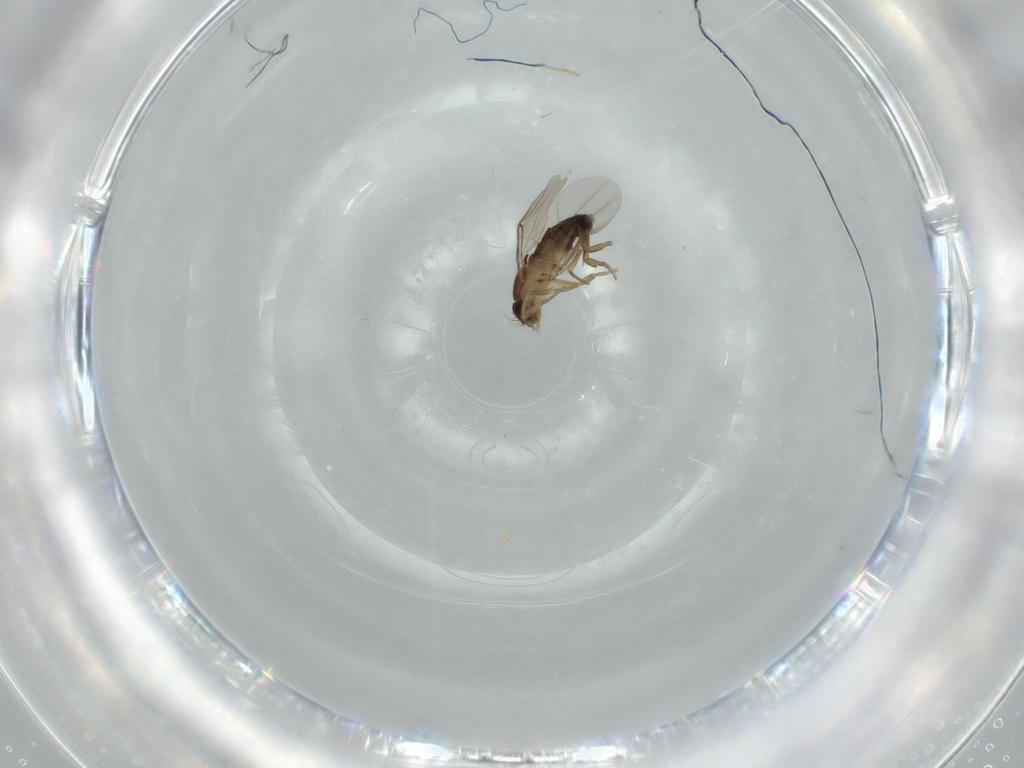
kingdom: Animalia
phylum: Arthropoda
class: Insecta
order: Diptera
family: Phoridae
